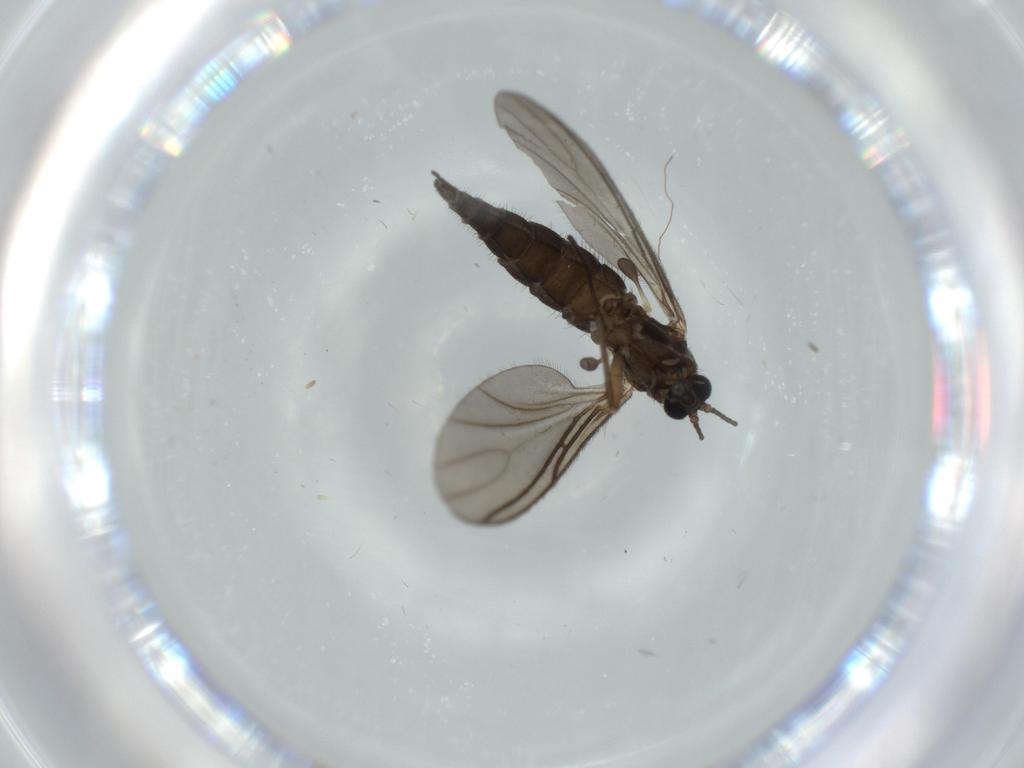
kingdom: Animalia
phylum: Arthropoda
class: Insecta
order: Diptera
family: Sciaridae
